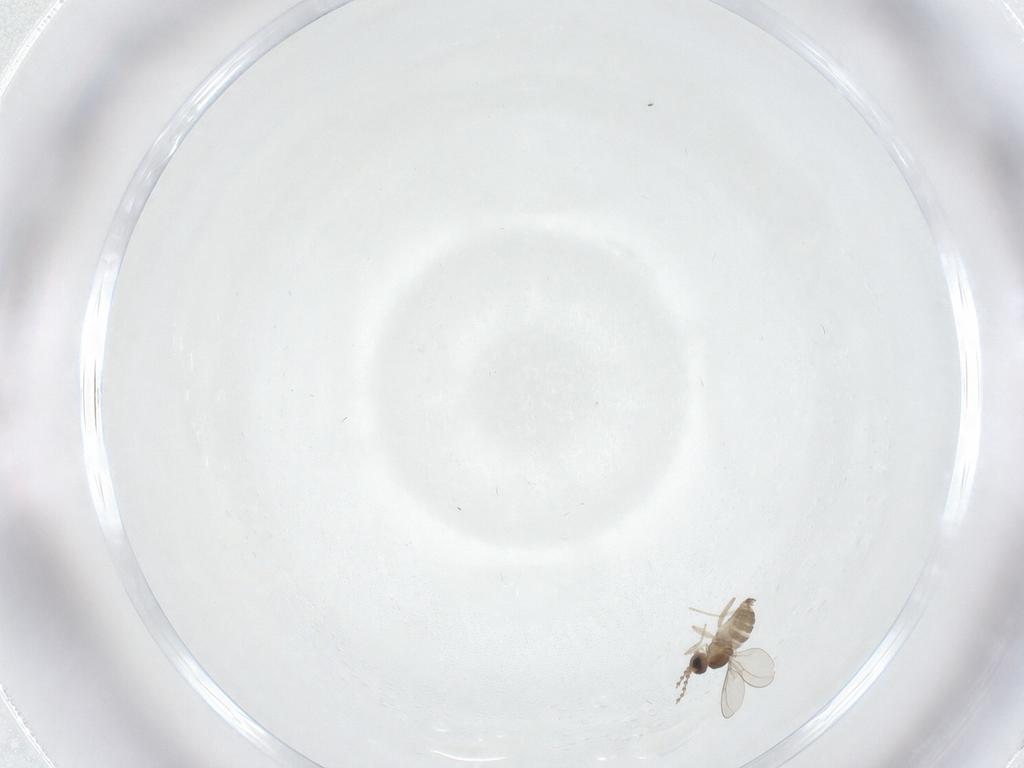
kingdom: Animalia
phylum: Arthropoda
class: Insecta
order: Diptera
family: Cecidomyiidae
